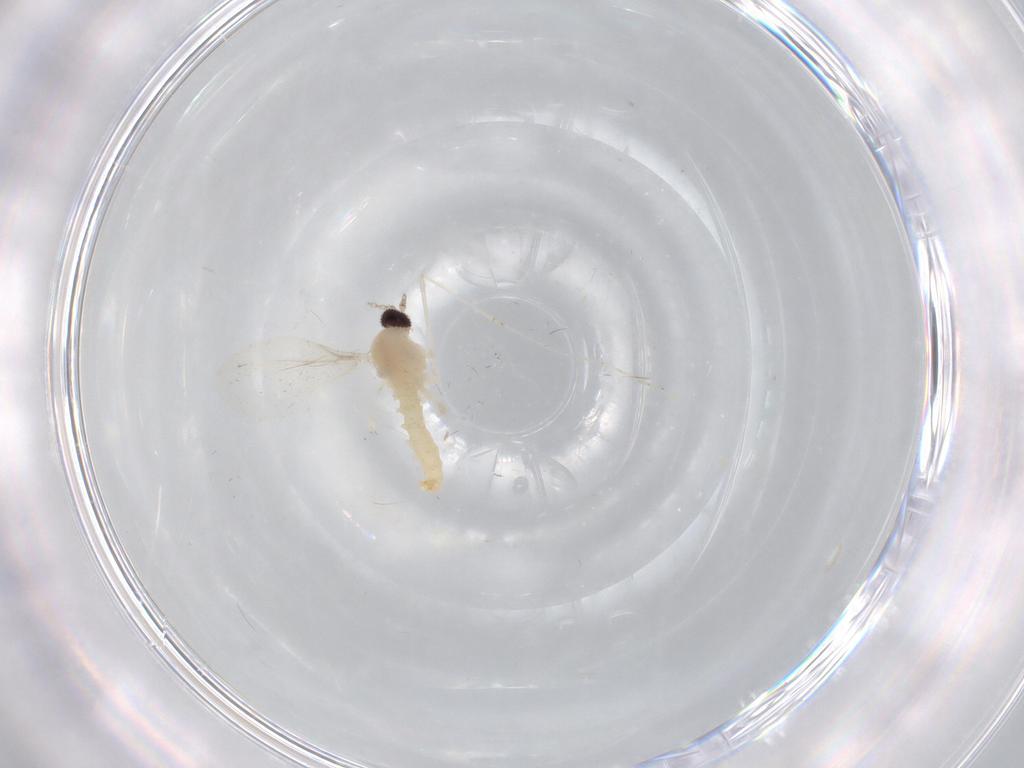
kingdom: Animalia
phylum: Arthropoda
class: Insecta
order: Diptera
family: Cecidomyiidae
